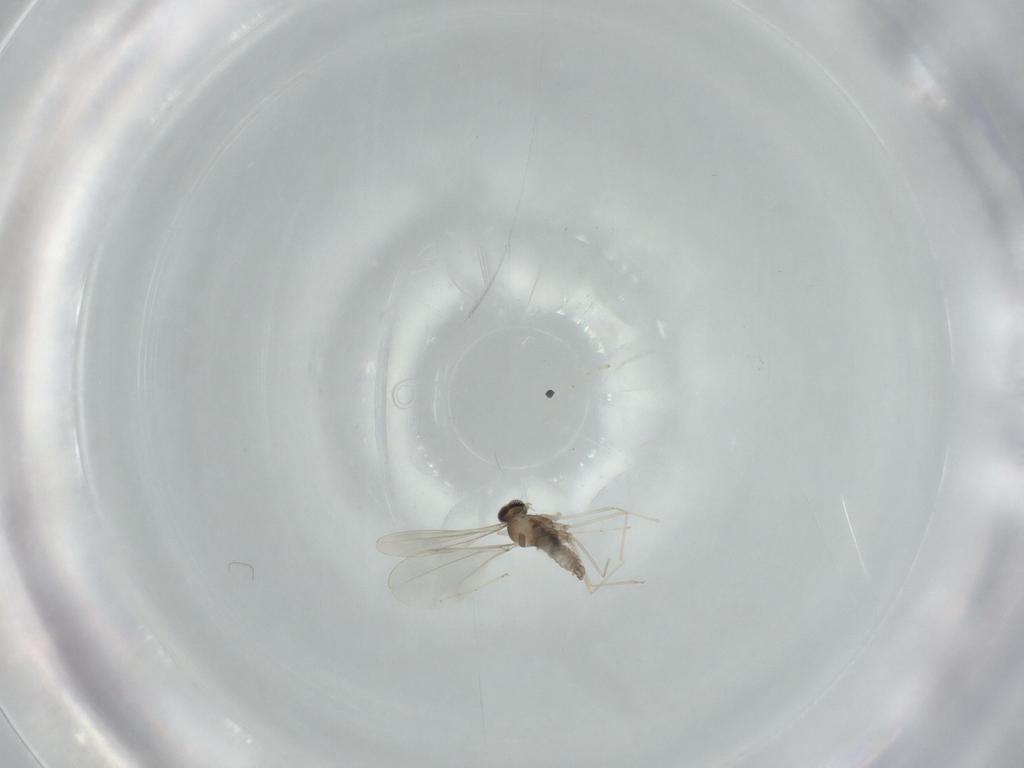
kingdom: Animalia
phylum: Arthropoda
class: Insecta
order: Diptera
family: Cecidomyiidae
